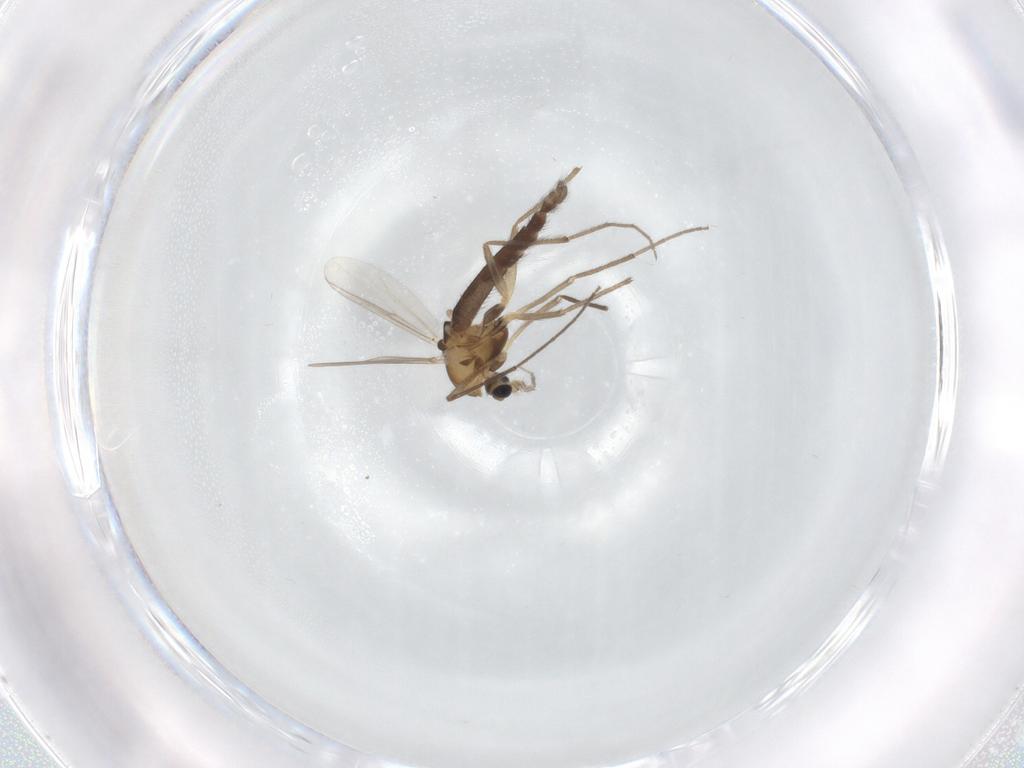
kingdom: Animalia
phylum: Arthropoda
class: Insecta
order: Diptera
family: Chironomidae
